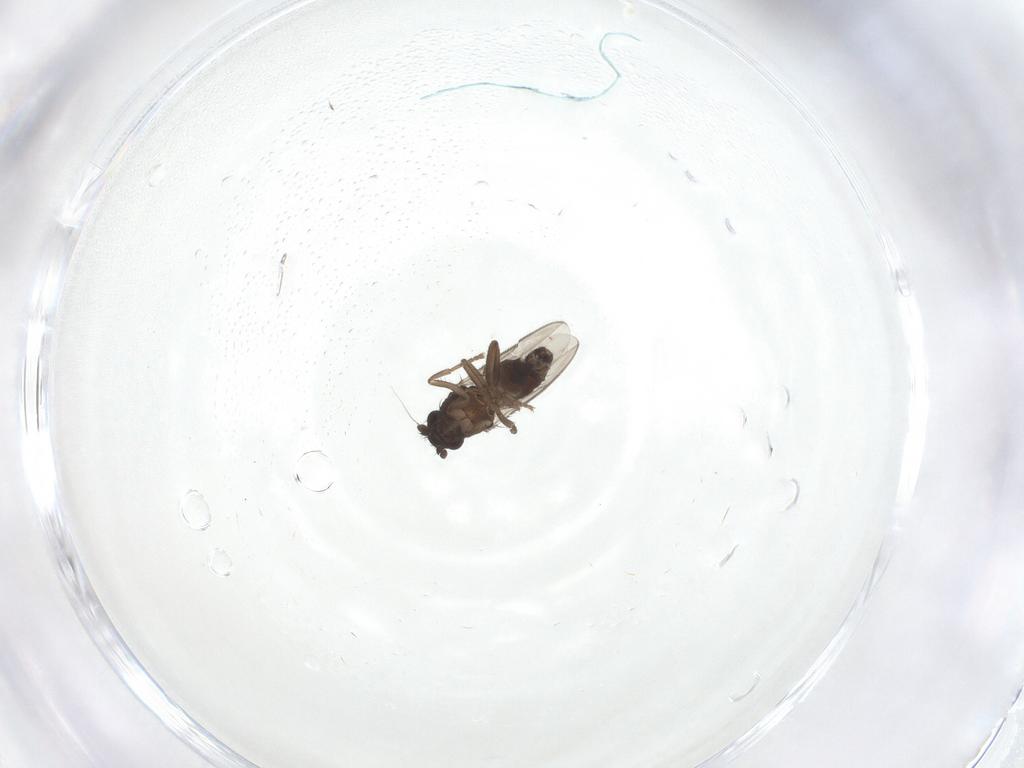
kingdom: Animalia
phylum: Arthropoda
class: Insecta
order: Diptera
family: Dolichopodidae
